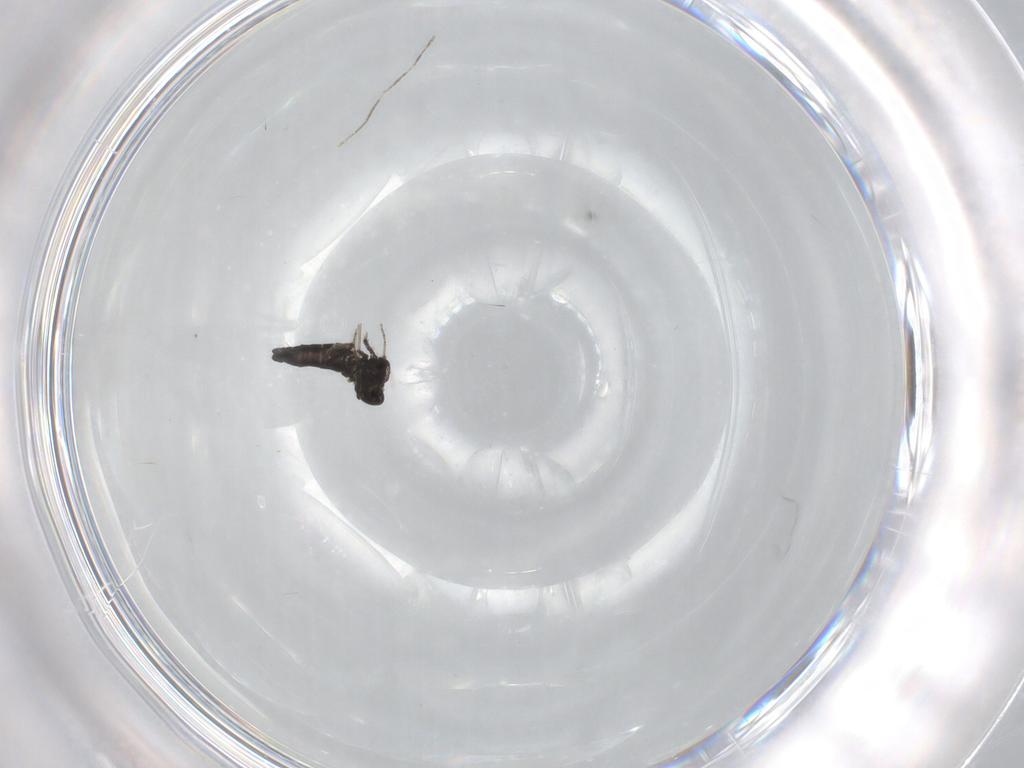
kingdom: Animalia
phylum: Arthropoda
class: Insecta
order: Diptera
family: Ceratopogonidae
